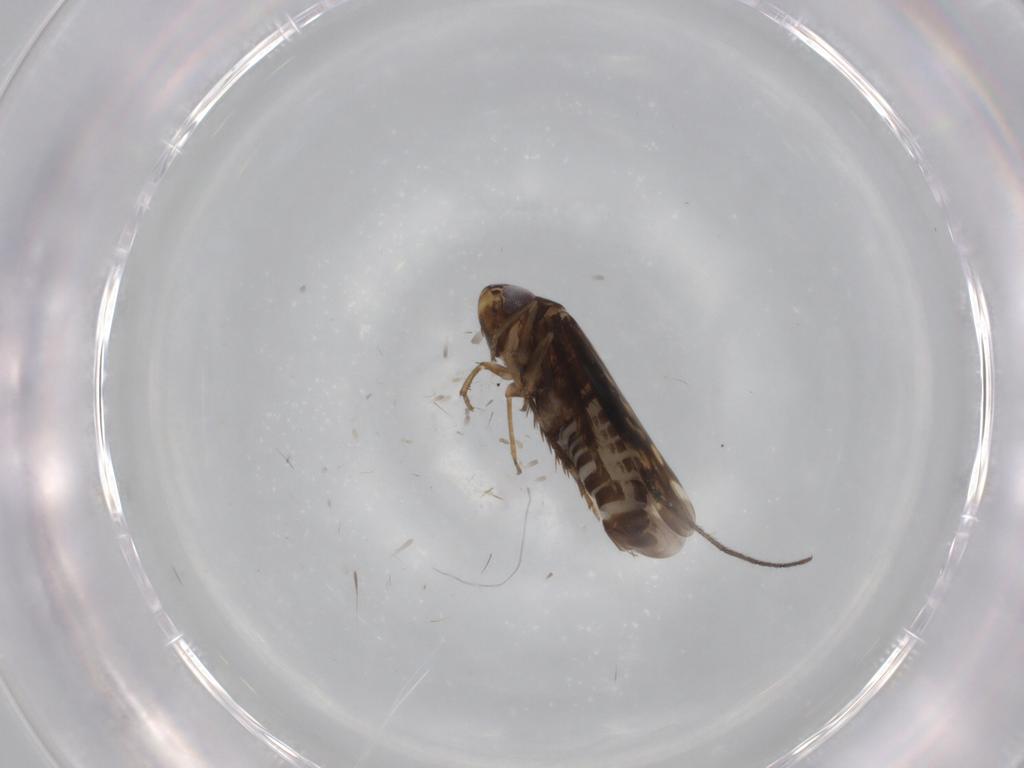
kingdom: Animalia
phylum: Arthropoda
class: Insecta
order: Hemiptera
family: Cicadellidae
